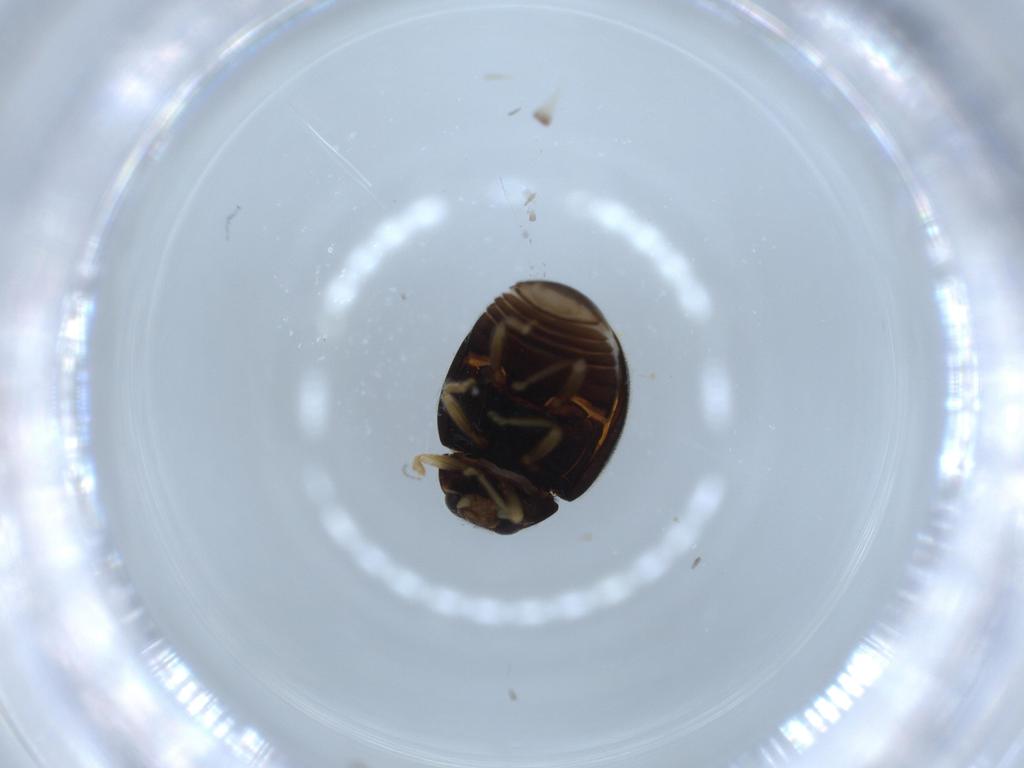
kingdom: Animalia
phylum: Arthropoda
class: Insecta
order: Coleoptera
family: Coccinellidae
